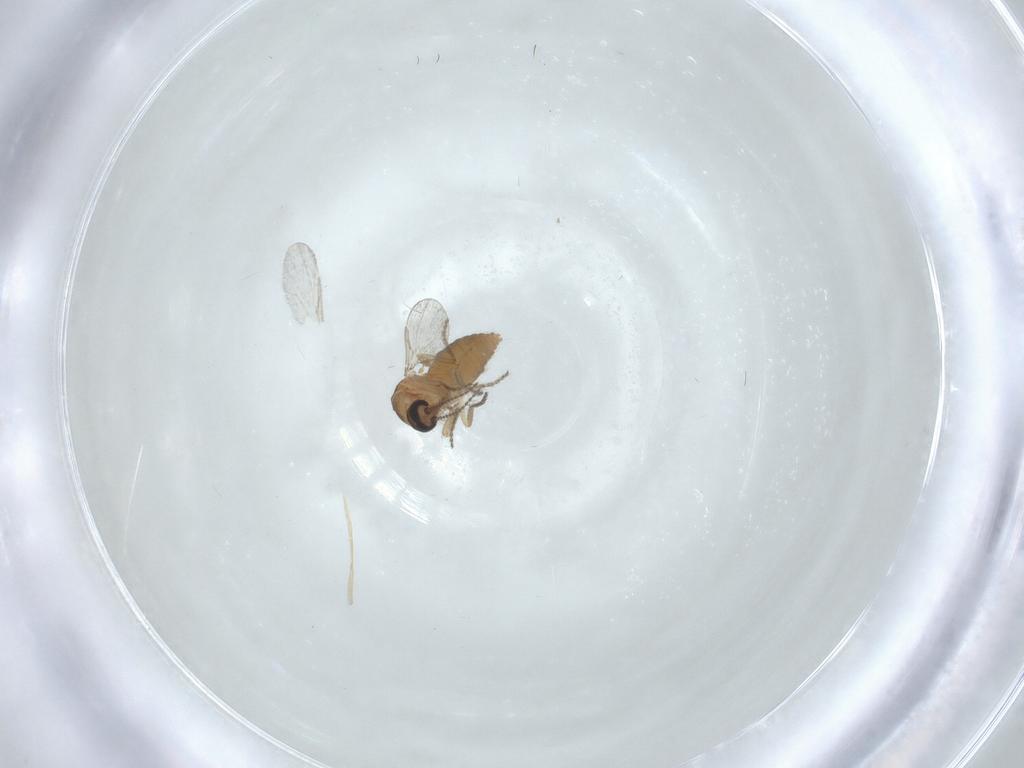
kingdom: Animalia
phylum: Arthropoda
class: Insecta
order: Diptera
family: Ceratopogonidae
